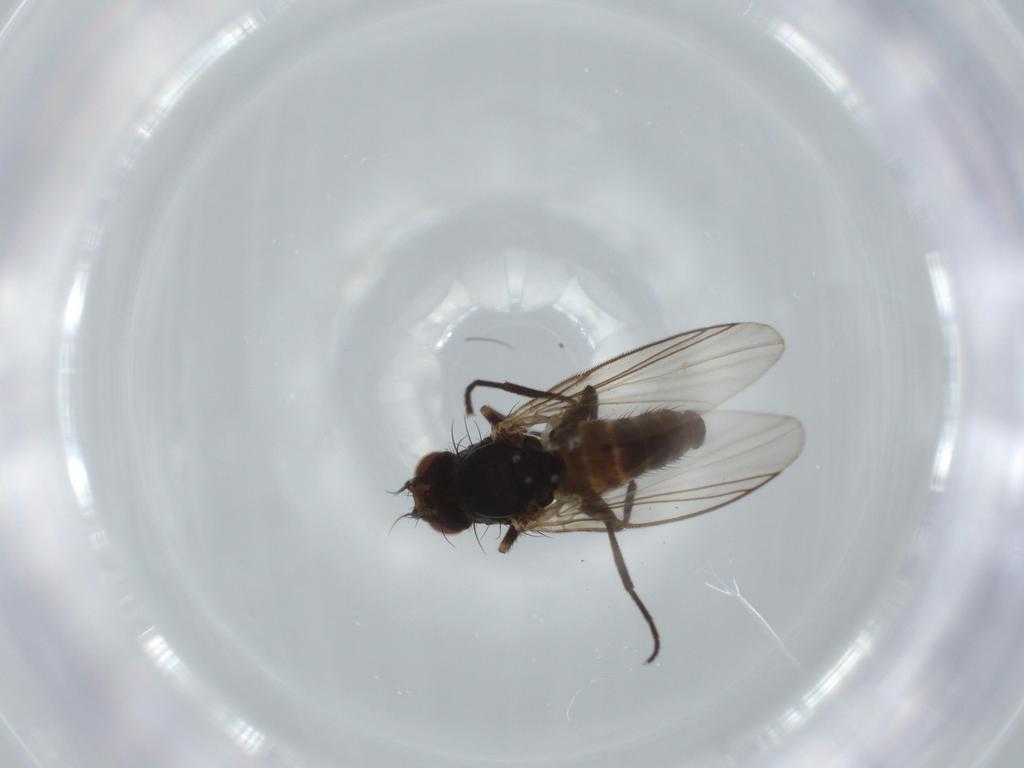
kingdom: Animalia
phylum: Arthropoda
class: Insecta
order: Diptera
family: Agromyzidae
